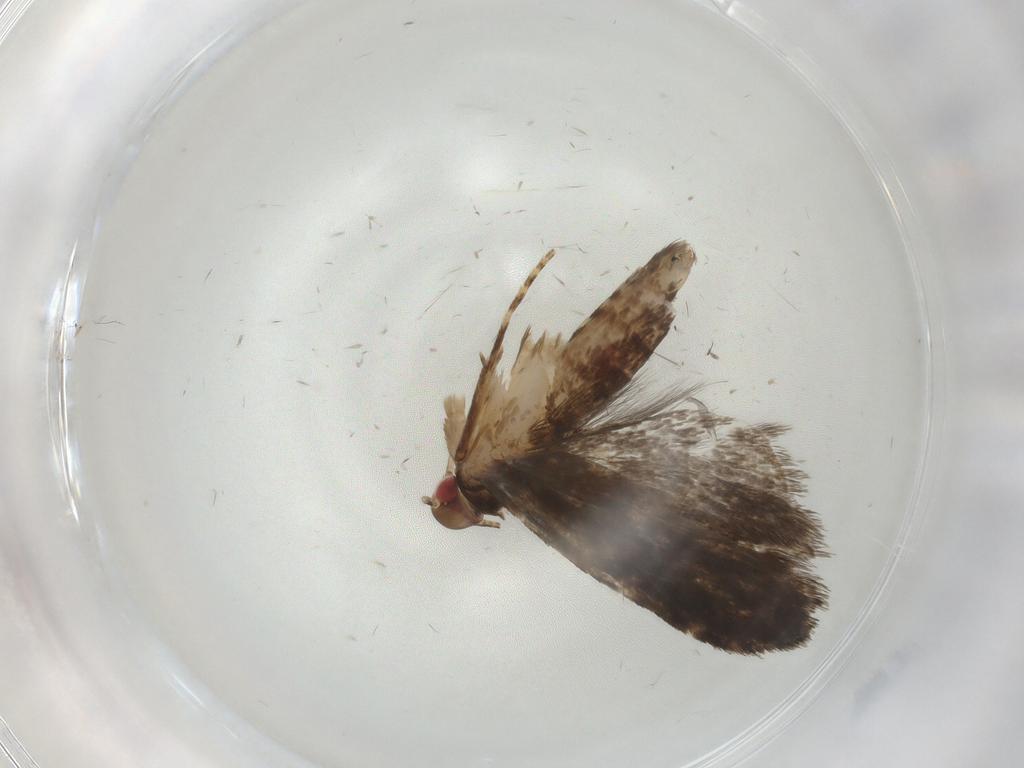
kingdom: Animalia
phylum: Arthropoda
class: Insecta
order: Lepidoptera
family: Gelechiidae
